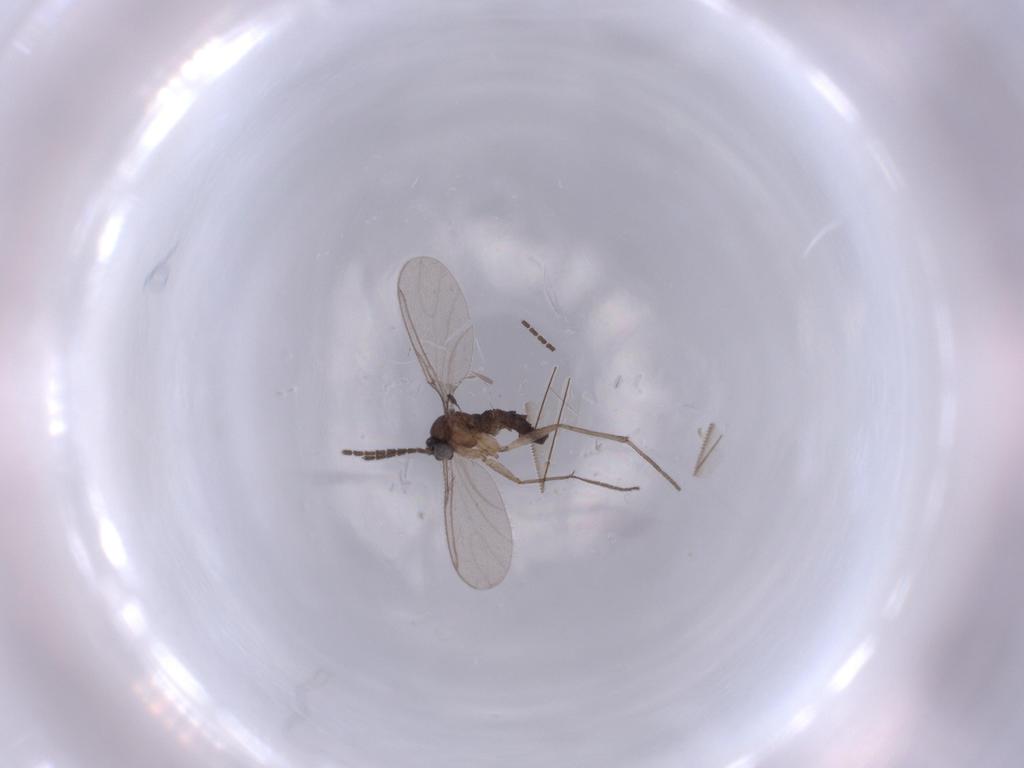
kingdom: Animalia
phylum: Arthropoda
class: Insecta
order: Diptera
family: Sciaridae
